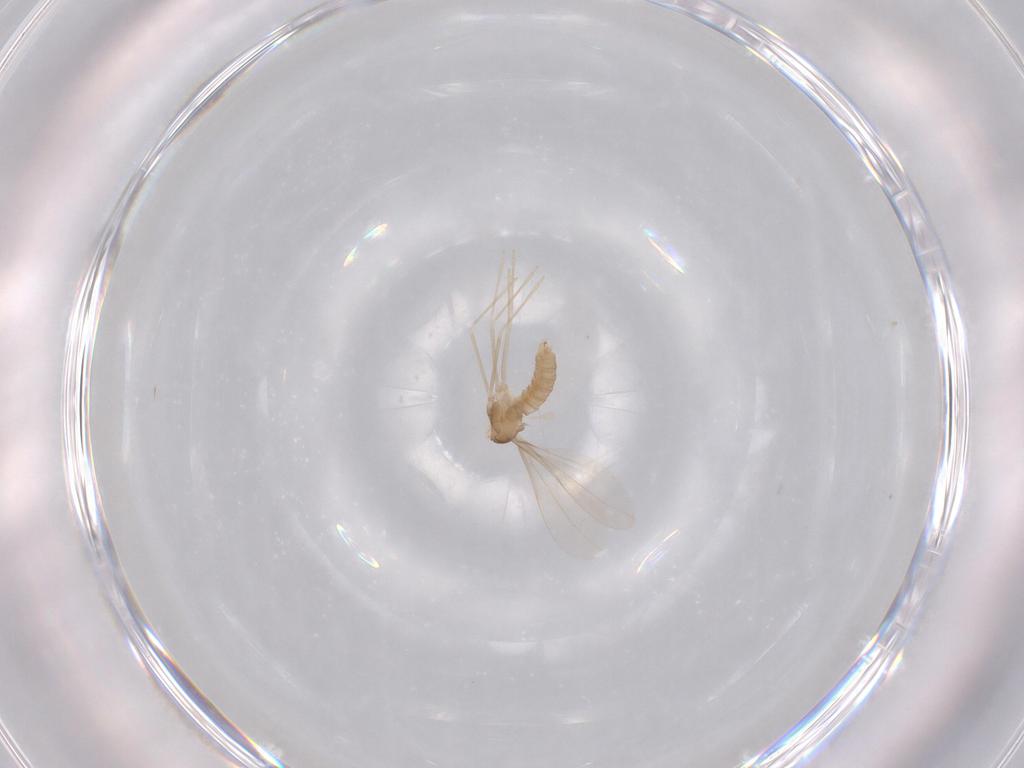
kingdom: Animalia
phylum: Arthropoda
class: Insecta
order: Diptera
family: Cecidomyiidae
